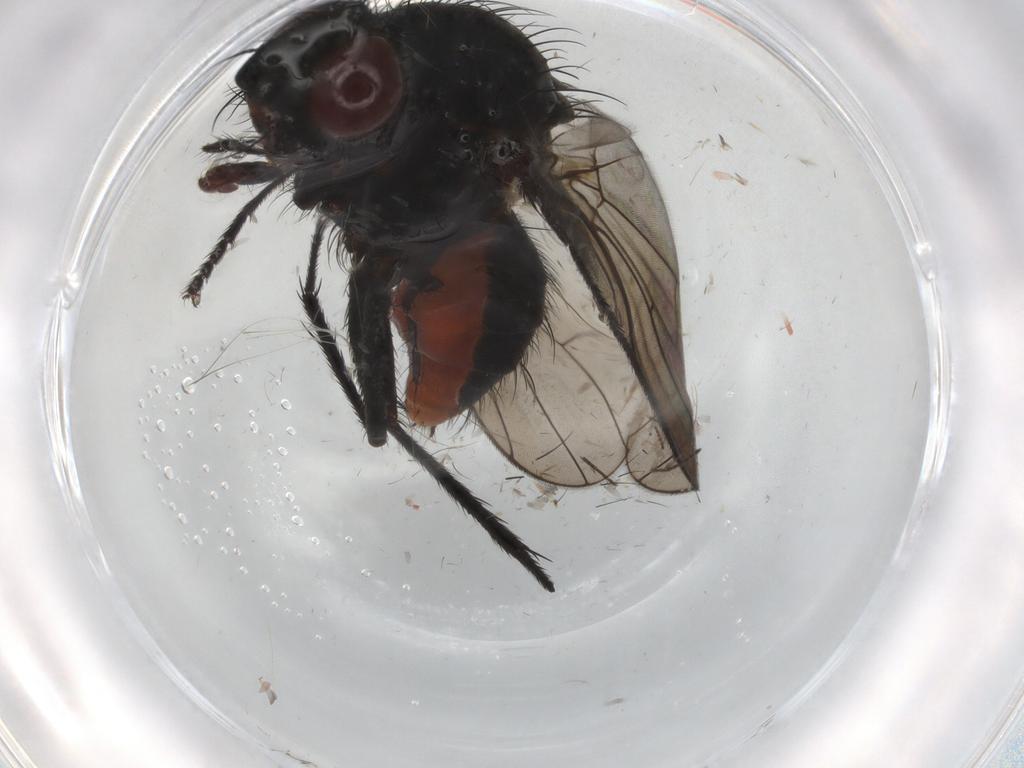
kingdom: Animalia
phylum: Arthropoda
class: Insecta
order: Diptera
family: Anthomyiidae
